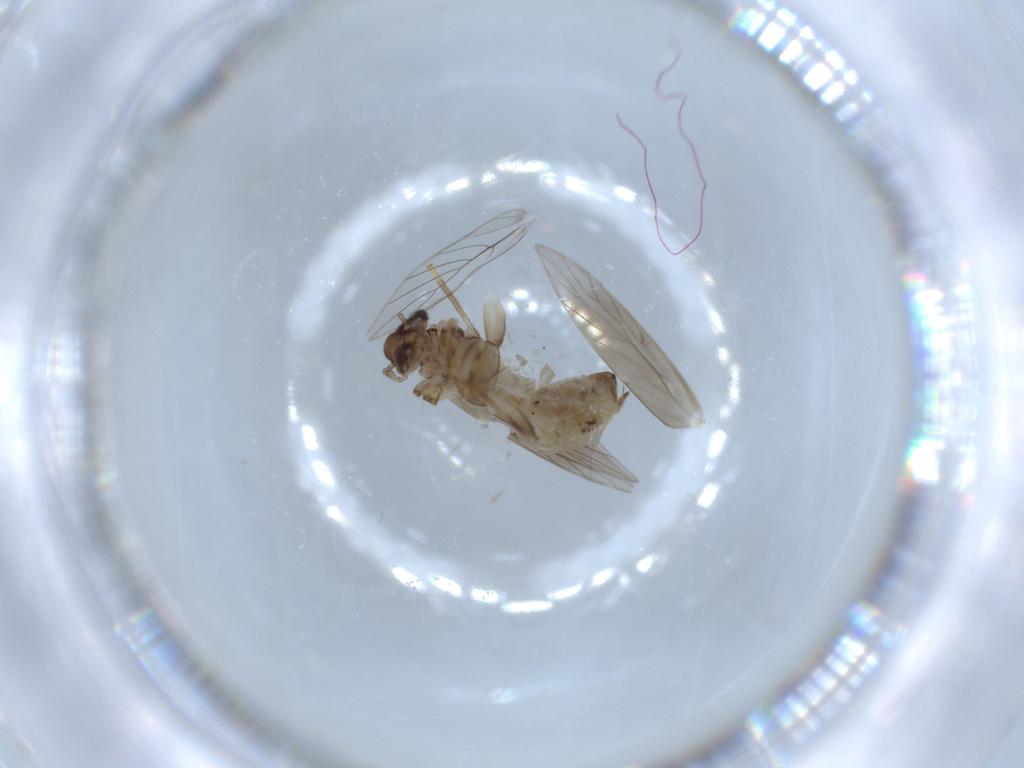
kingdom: Animalia
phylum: Arthropoda
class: Insecta
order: Psocodea
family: Lepidopsocidae
